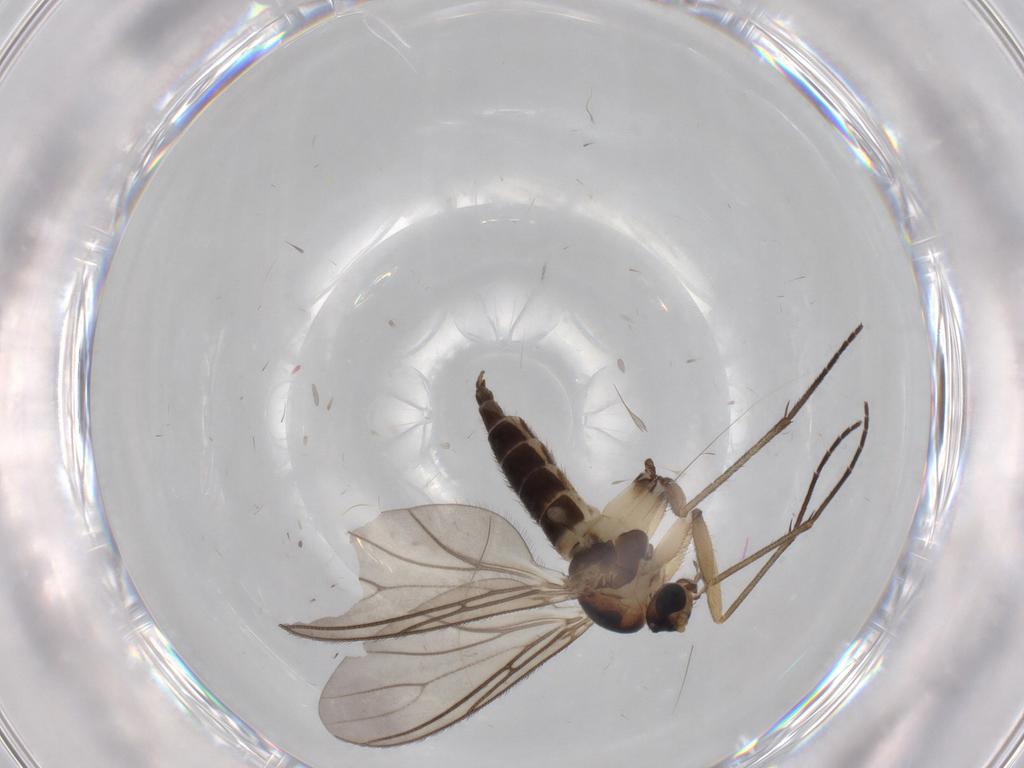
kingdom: Animalia
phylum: Arthropoda
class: Insecta
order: Diptera
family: Sciaridae
